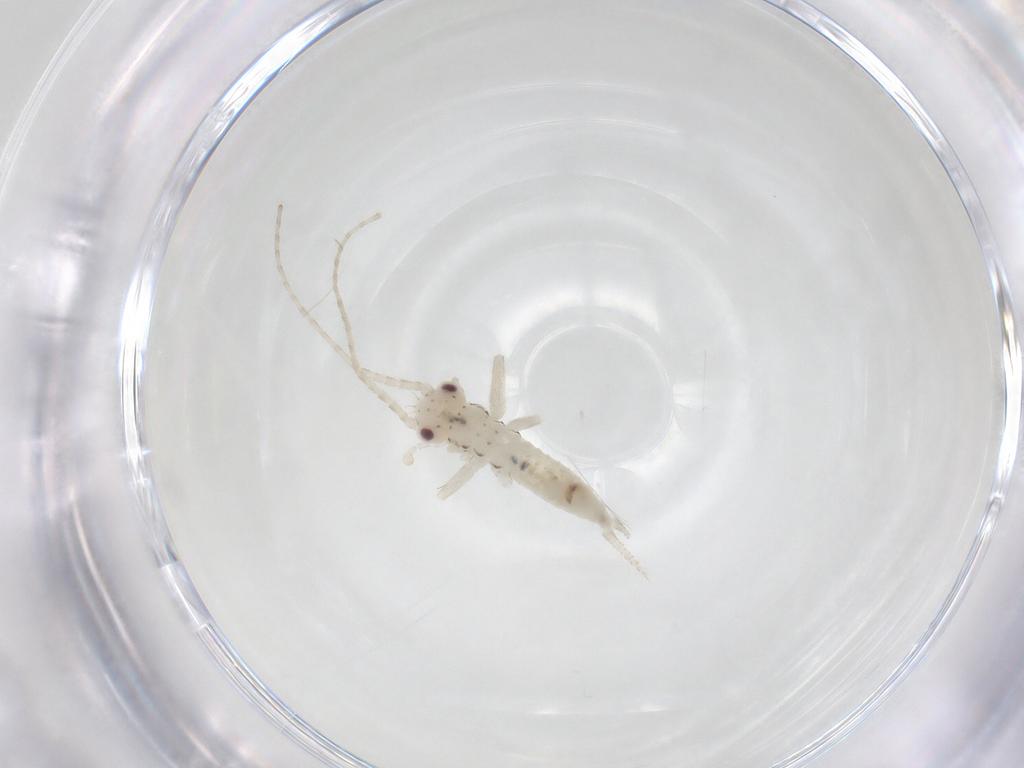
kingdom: Animalia
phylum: Arthropoda
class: Insecta
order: Orthoptera
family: Trigonidiidae
